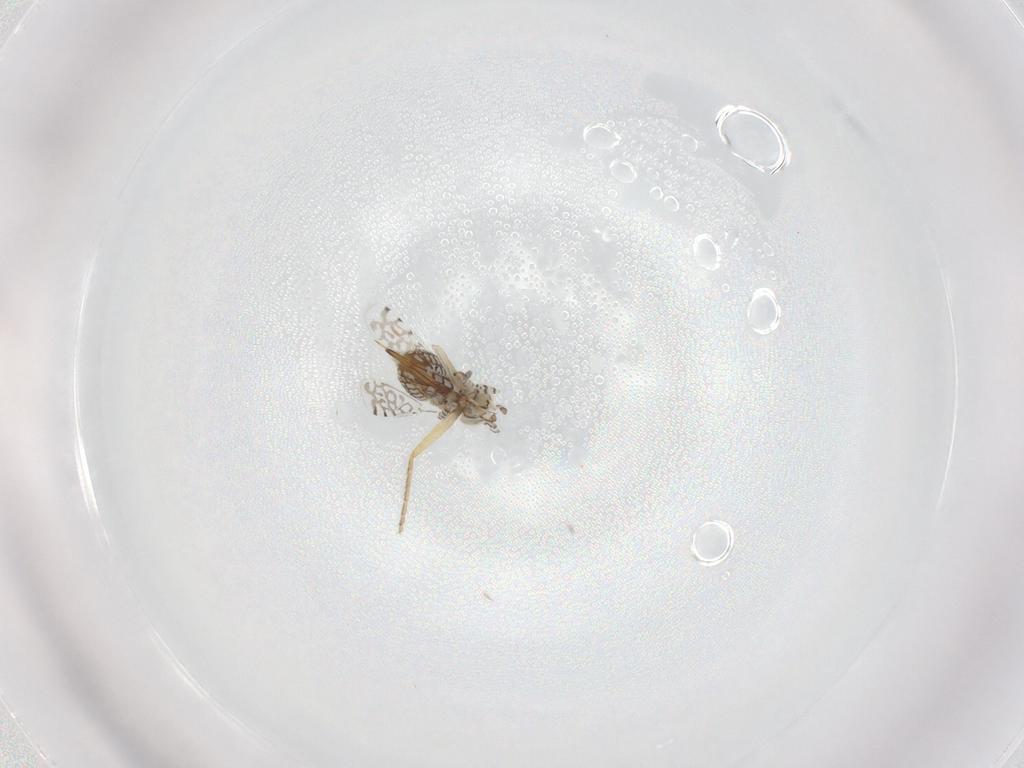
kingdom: Animalia
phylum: Arthropoda
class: Insecta
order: Hymenoptera
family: Aphelinidae
